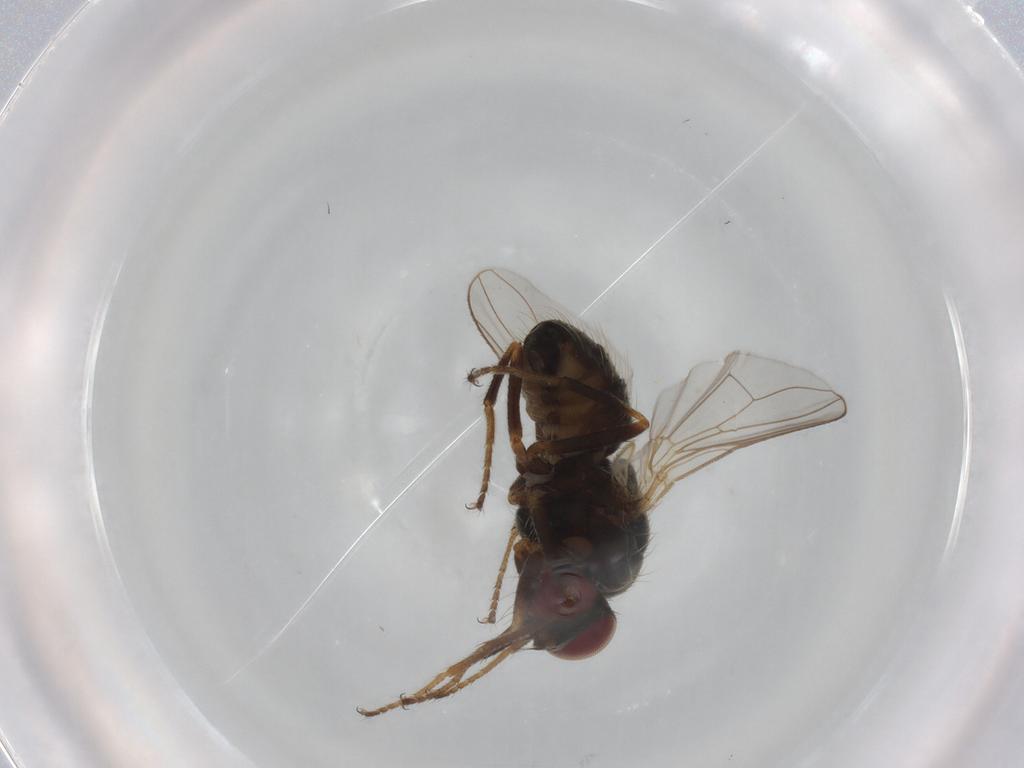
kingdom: Animalia
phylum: Arthropoda
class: Insecta
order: Diptera
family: Muscidae
